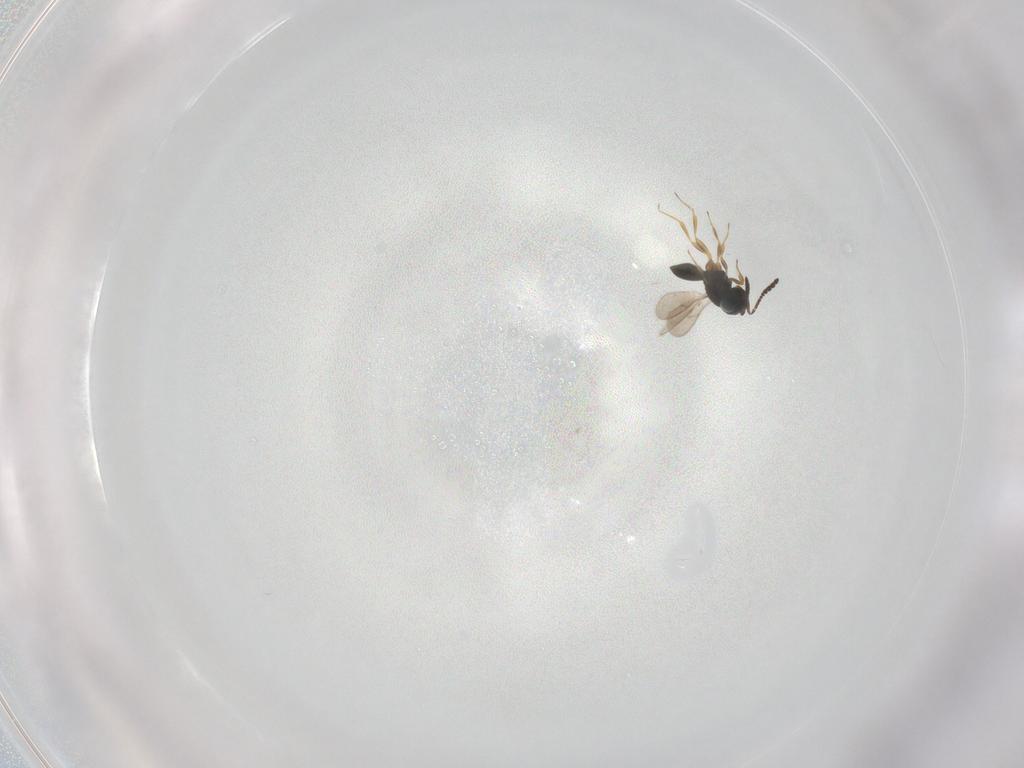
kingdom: Animalia
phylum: Arthropoda
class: Insecta
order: Hymenoptera
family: Scelionidae
